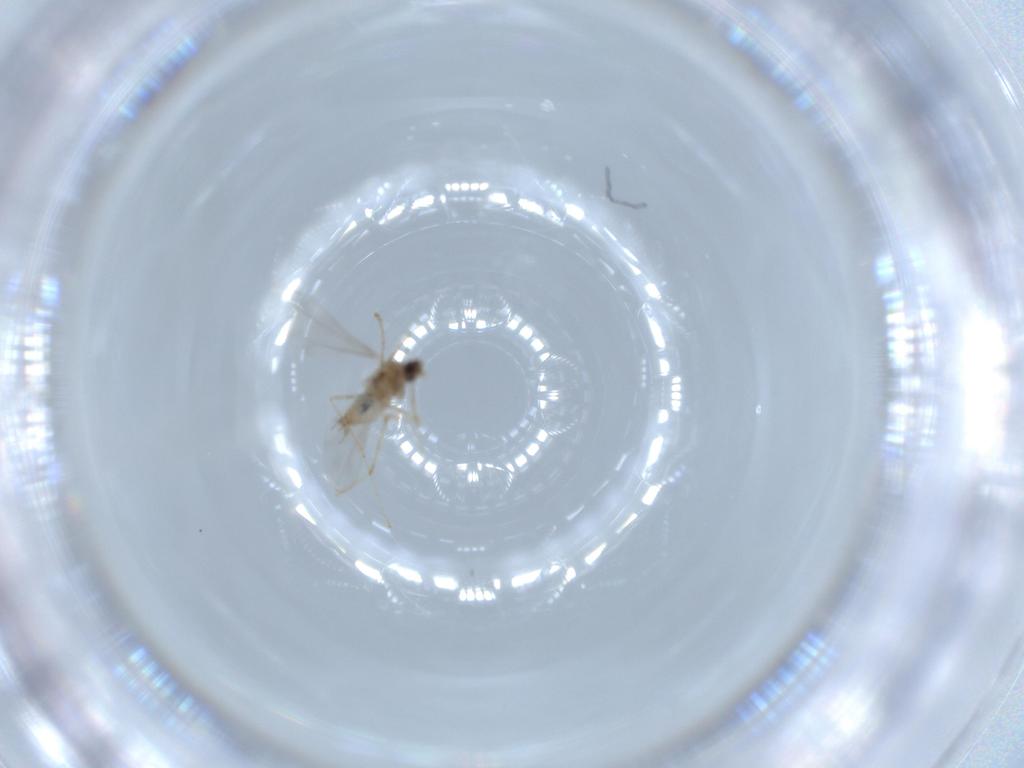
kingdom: Animalia
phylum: Arthropoda
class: Insecta
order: Diptera
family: Cecidomyiidae
